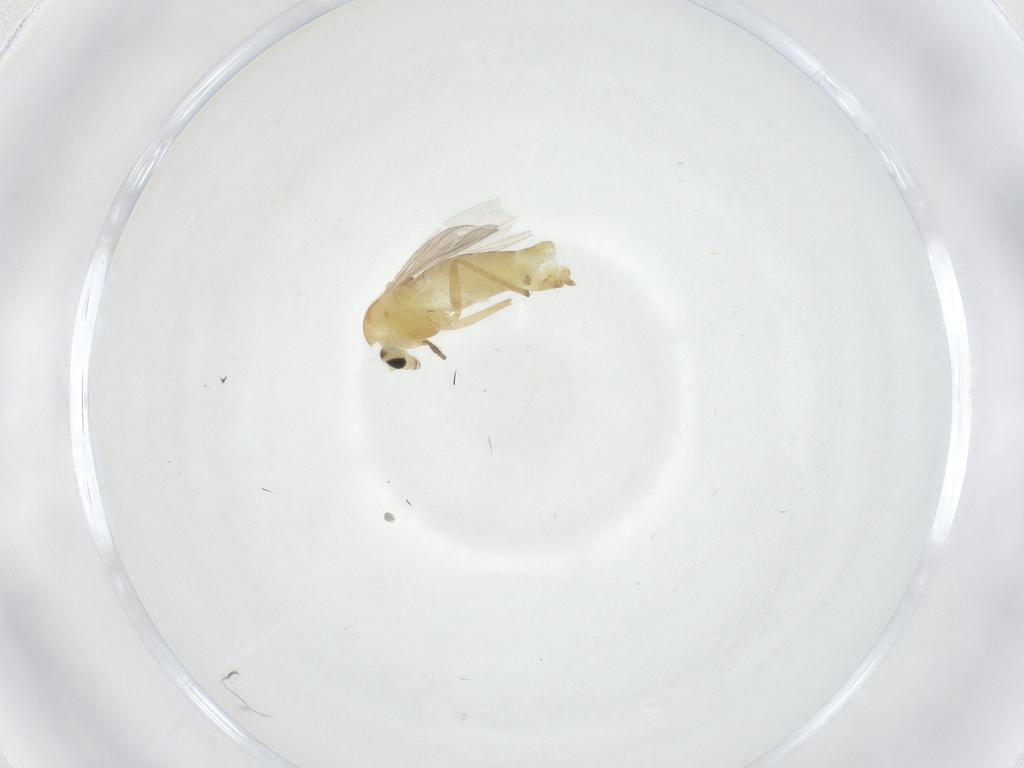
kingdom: Animalia
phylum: Arthropoda
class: Insecta
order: Diptera
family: Chironomidae
